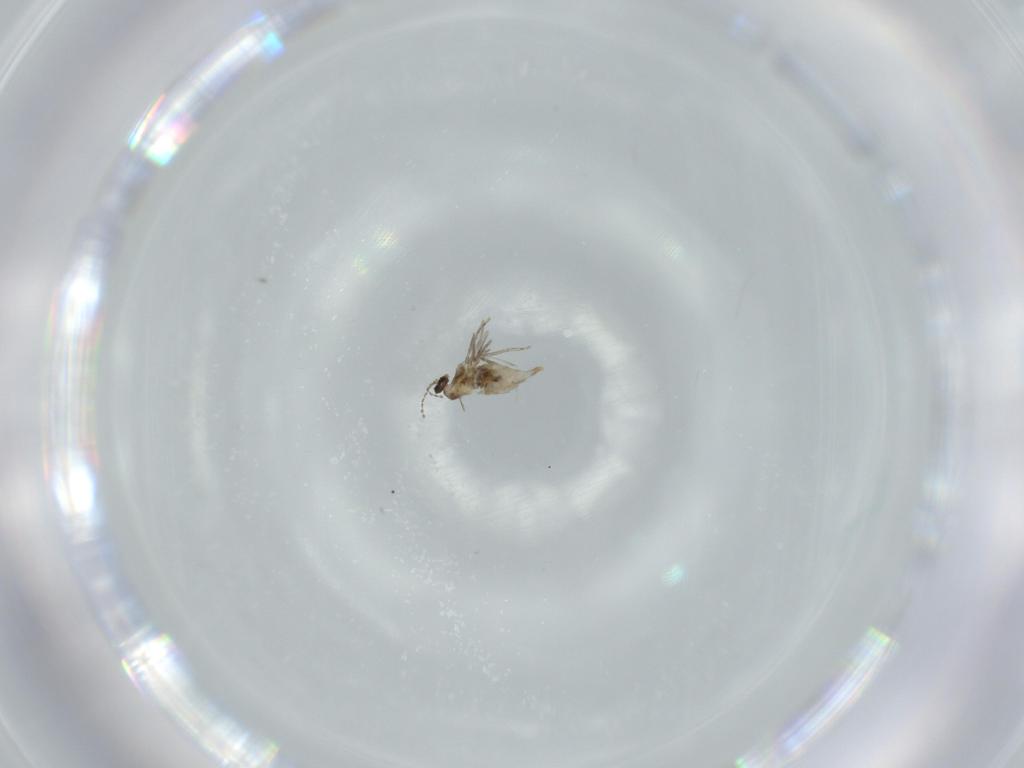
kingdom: Animalia
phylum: Arthropoda
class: Insecta
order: Diptera
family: Cecidomyiidae
